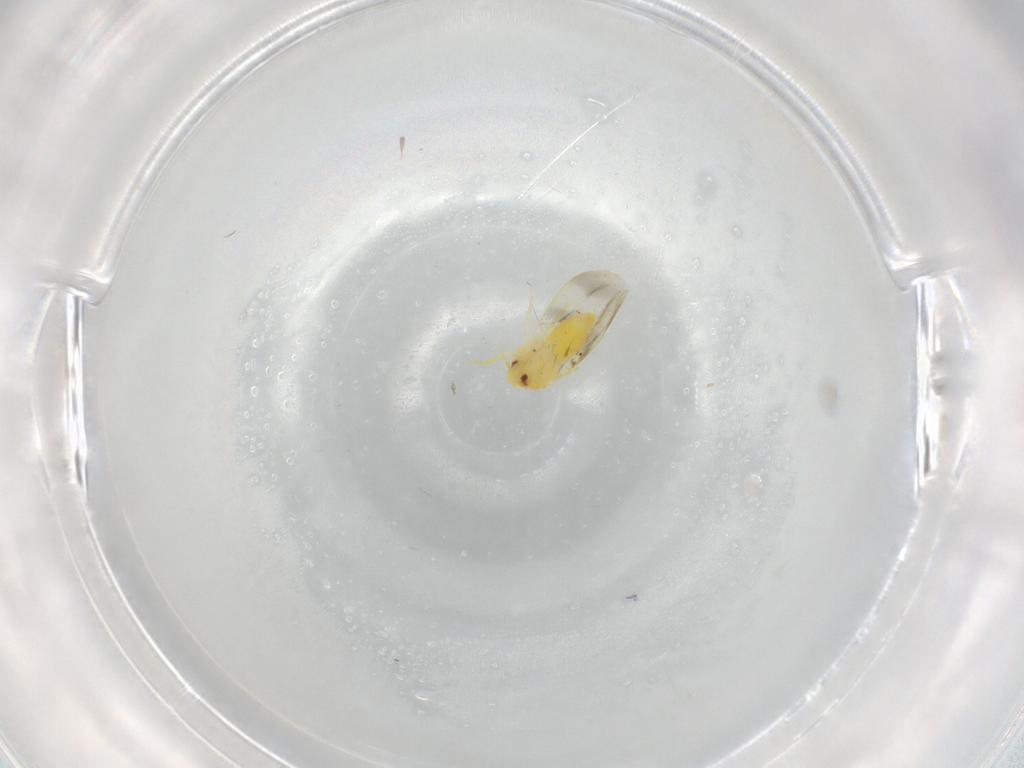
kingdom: Animalia
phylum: Arthropoda
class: Insecta
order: Hemiptera
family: Aleyrodidae
